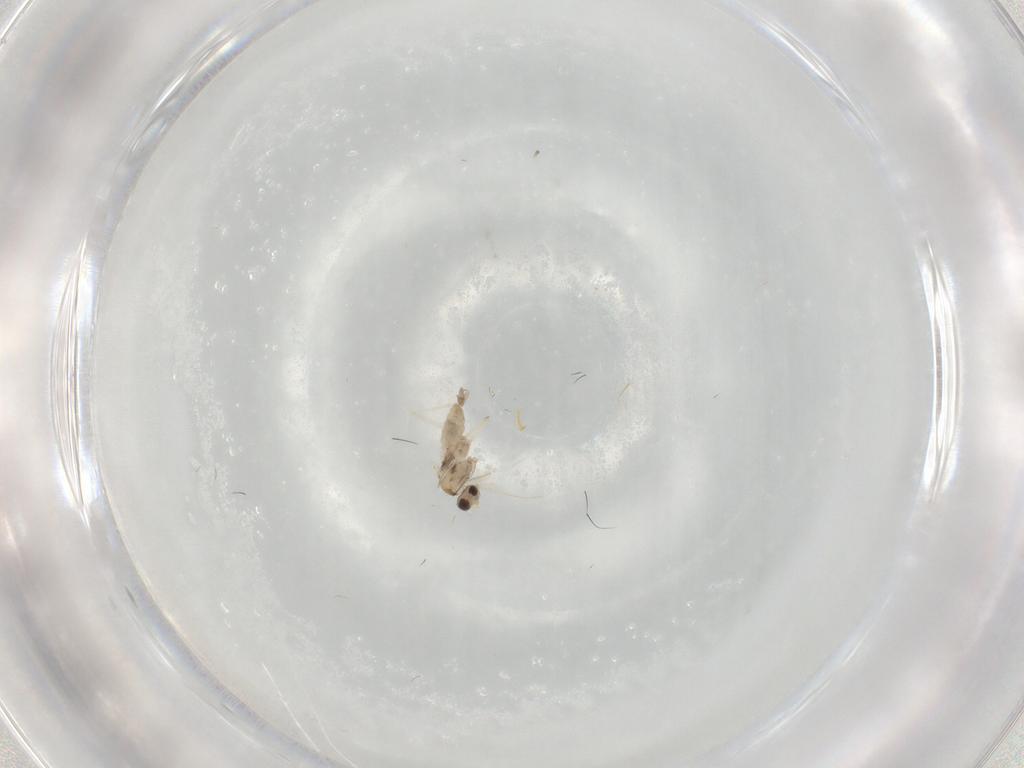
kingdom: Animalia
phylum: Arthropoda
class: Insecta
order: Diptera
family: Cecidomyiidae
